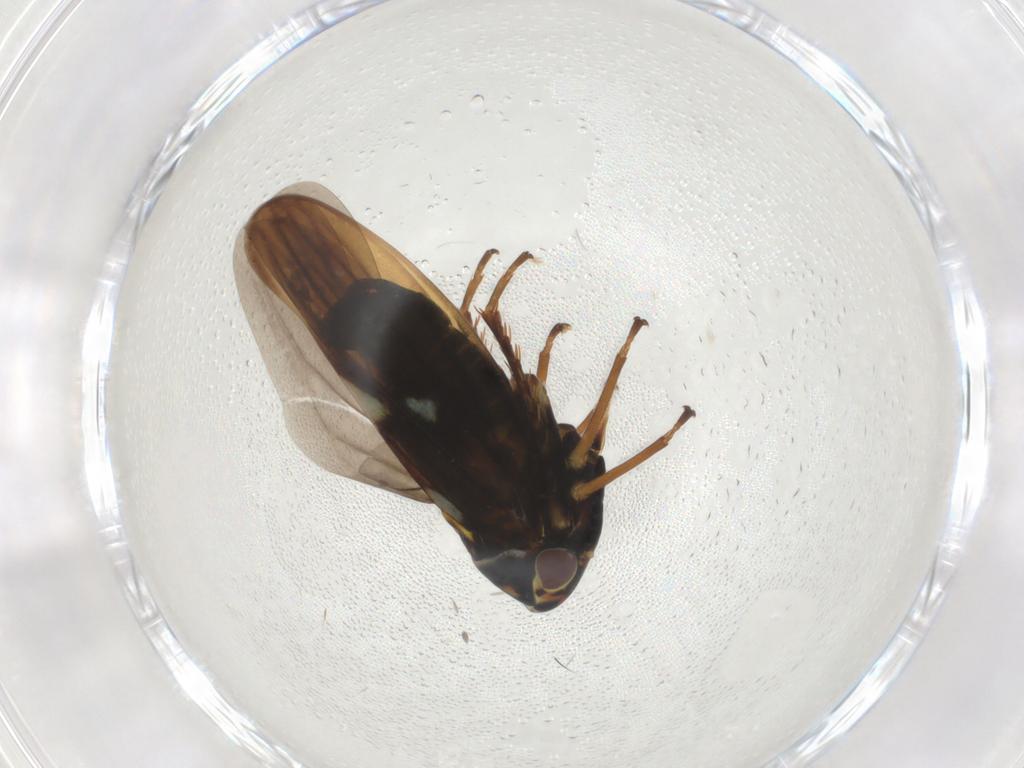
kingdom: Animalia
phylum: Arthropoda
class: Insecta
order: Hemiptera
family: Cicadellidae
